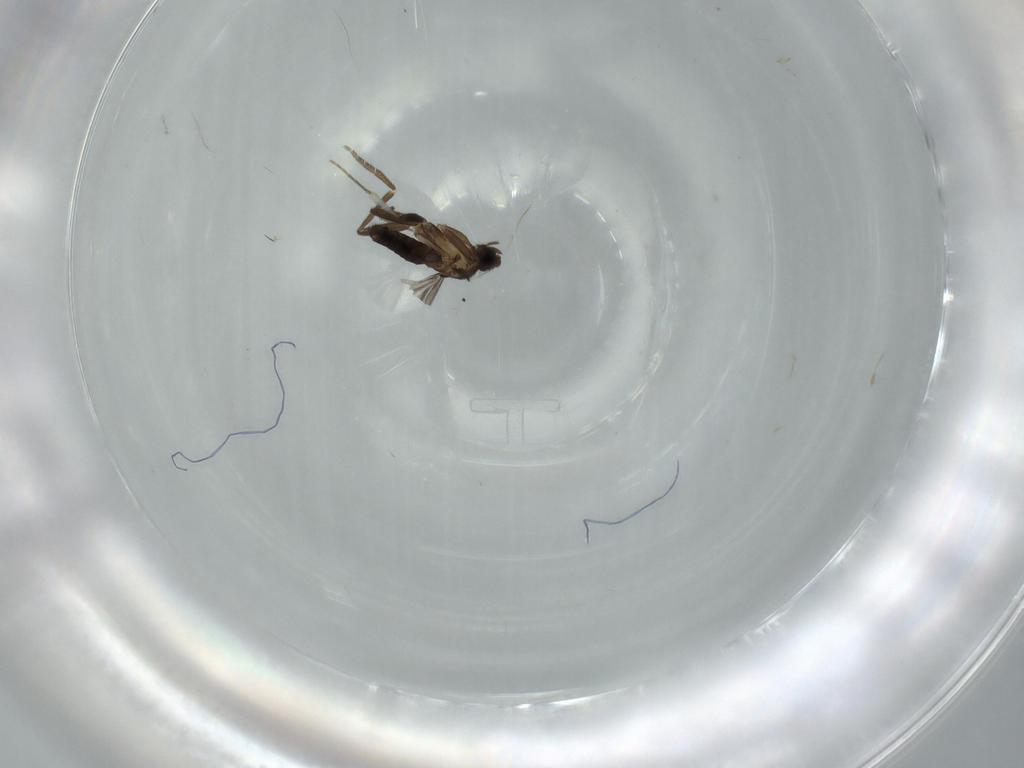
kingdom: Animalia
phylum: Arthropoda
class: Insecta
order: Diptera
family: Phoridae
